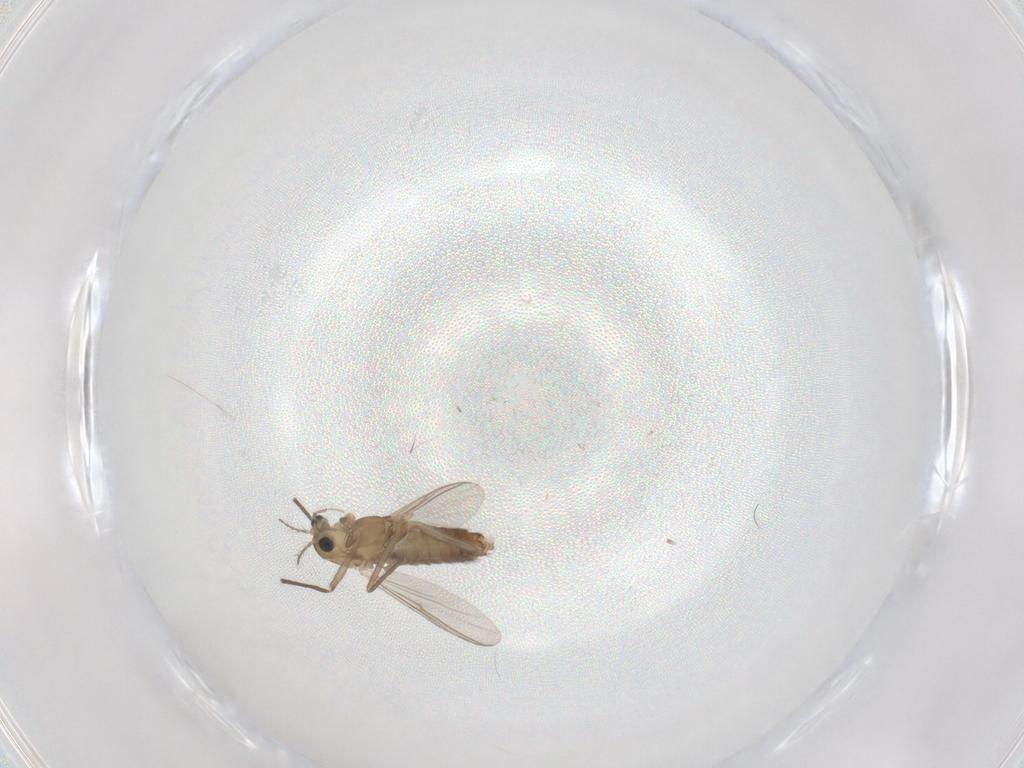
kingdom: Animalia
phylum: Arthropoda
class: Insecta
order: Diptera
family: Chironomidae
